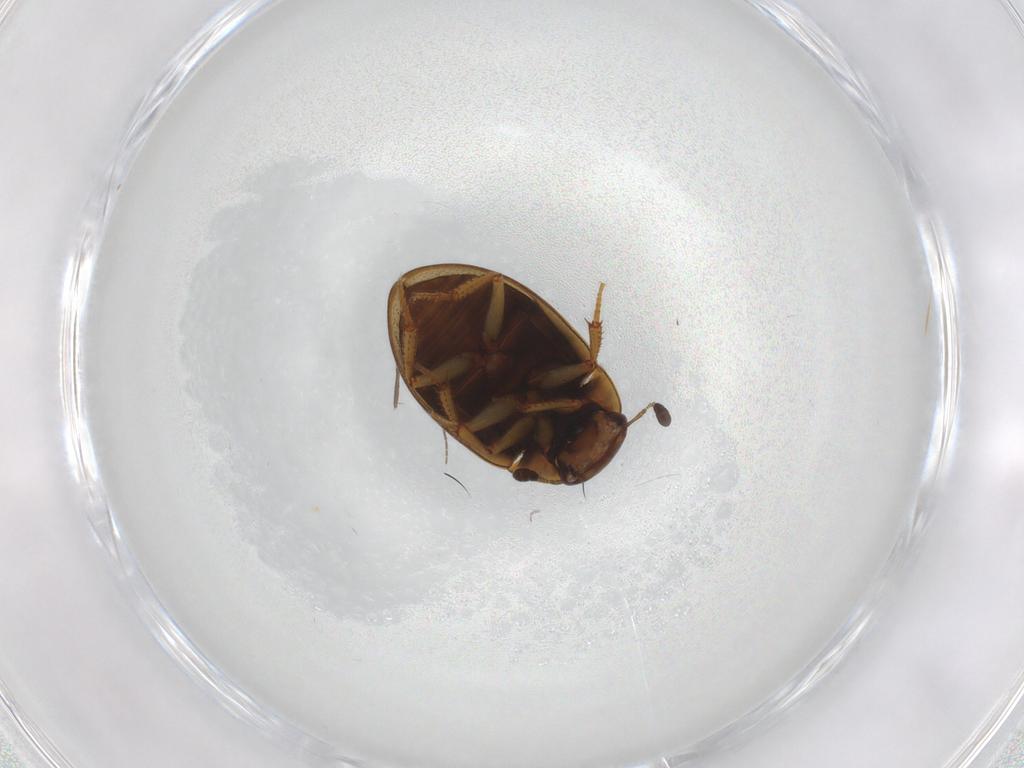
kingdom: Animalia
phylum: Arthropoda
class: Insecta
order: Coleoptera
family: Hydrophilidae
